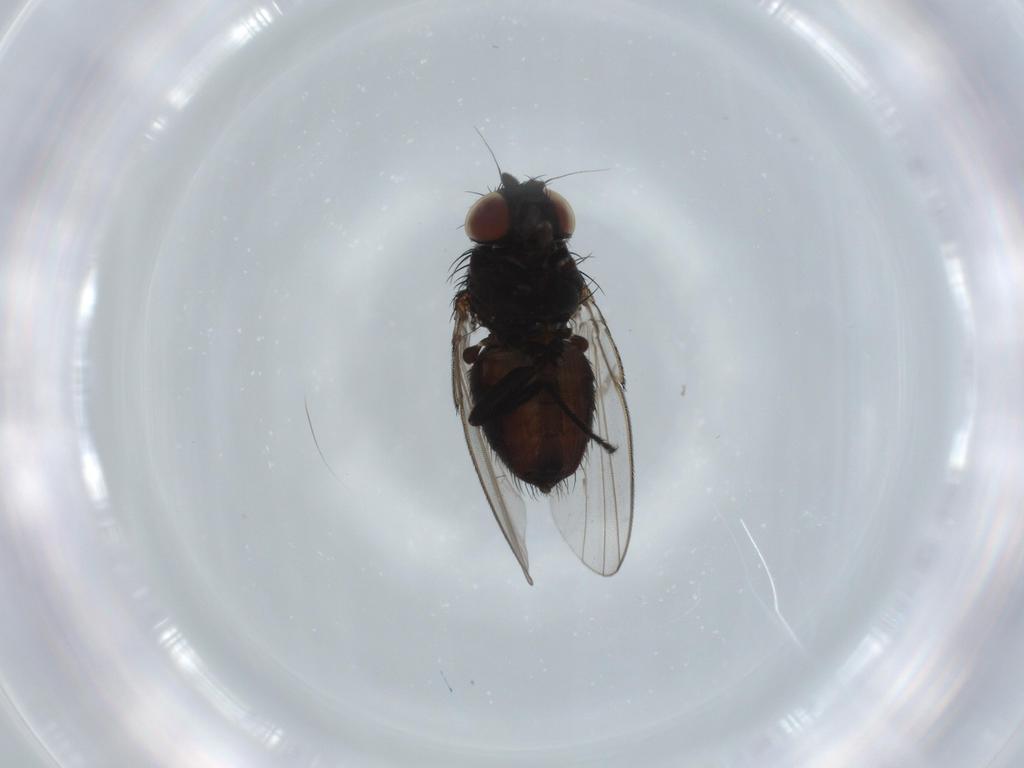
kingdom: Animalia
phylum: Arthropoda
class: Insecta
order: Diptera
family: Milichiidae
